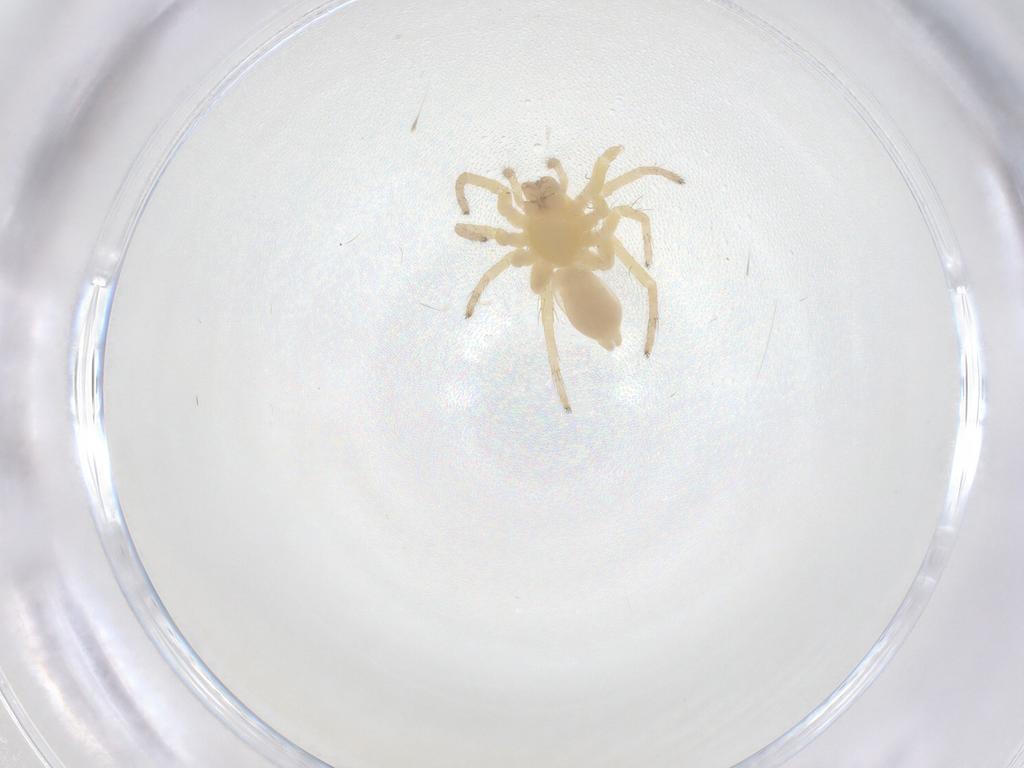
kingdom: Animalia
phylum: Arthropoda
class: Arachnida
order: Araneae
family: Anyphaenidae
